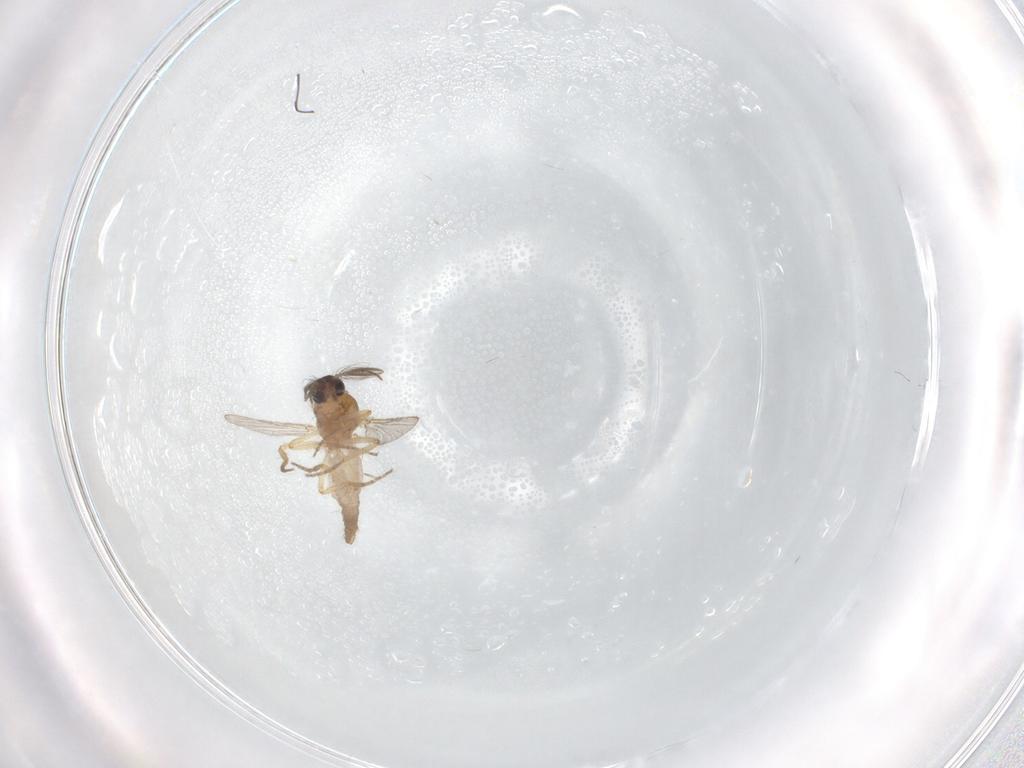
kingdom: Animalia
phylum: Arthropoda
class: Insecta
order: Diptera
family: Ceratopogonidae
